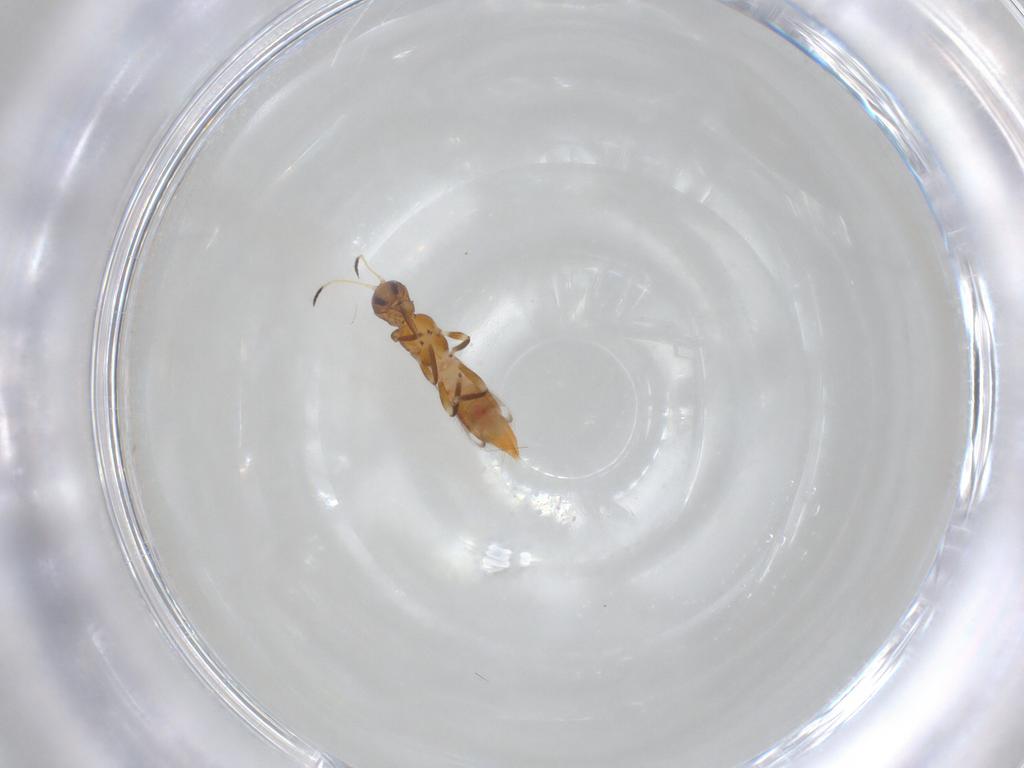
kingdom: Animalia
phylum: Arthropoda
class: Insecta
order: Thysanoptera
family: Aeolothripidae
